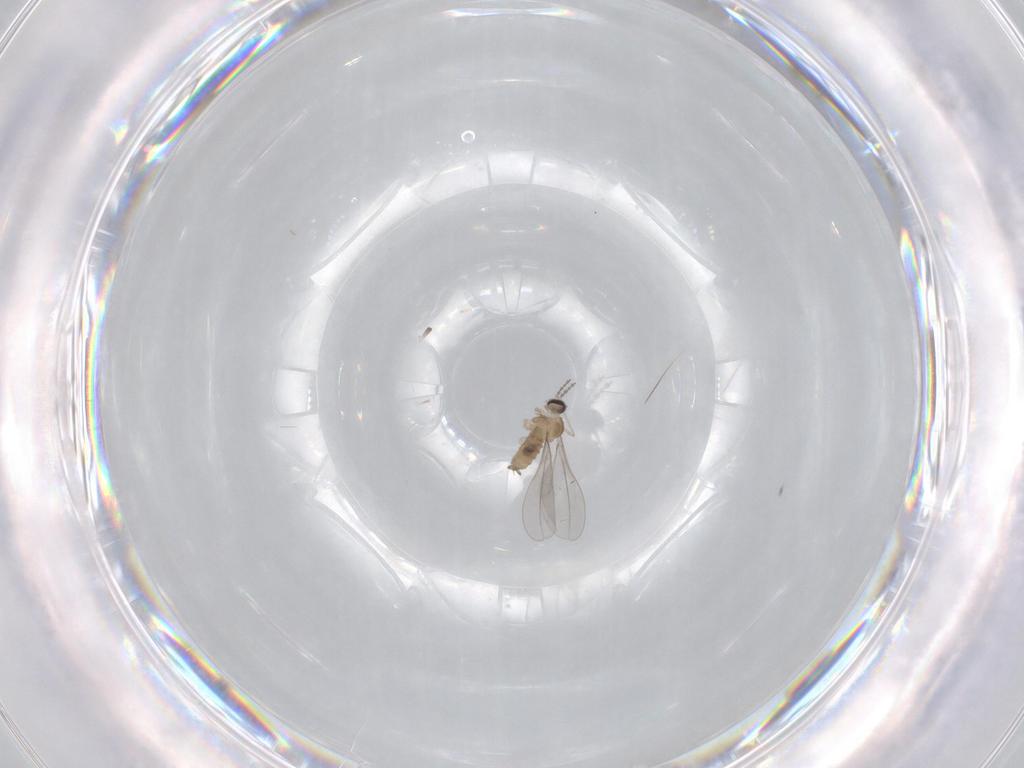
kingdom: Animalia
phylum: Arthropoda
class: Insecta
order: Diptera
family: Cecidomyiidae
